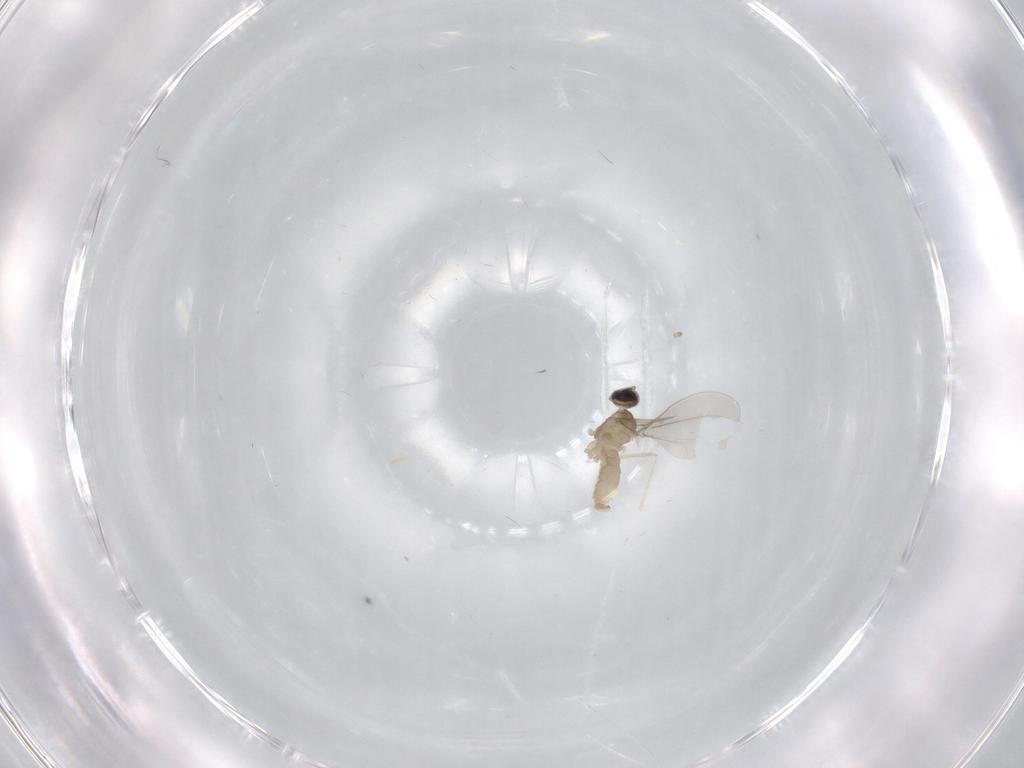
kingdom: Animalia
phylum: Arthropoda
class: Insecta
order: Diptera
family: Cecidomyiidae
